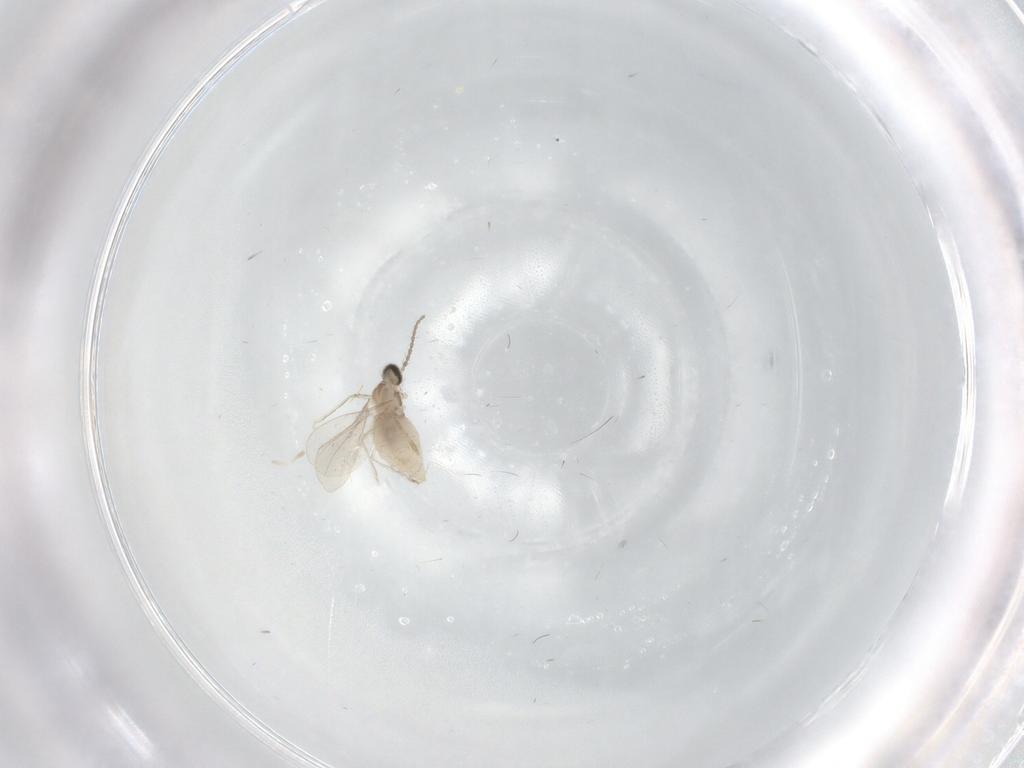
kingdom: Animalia
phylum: Arthropoda
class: Insecta
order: Diptera
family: Cecidomyiidae
